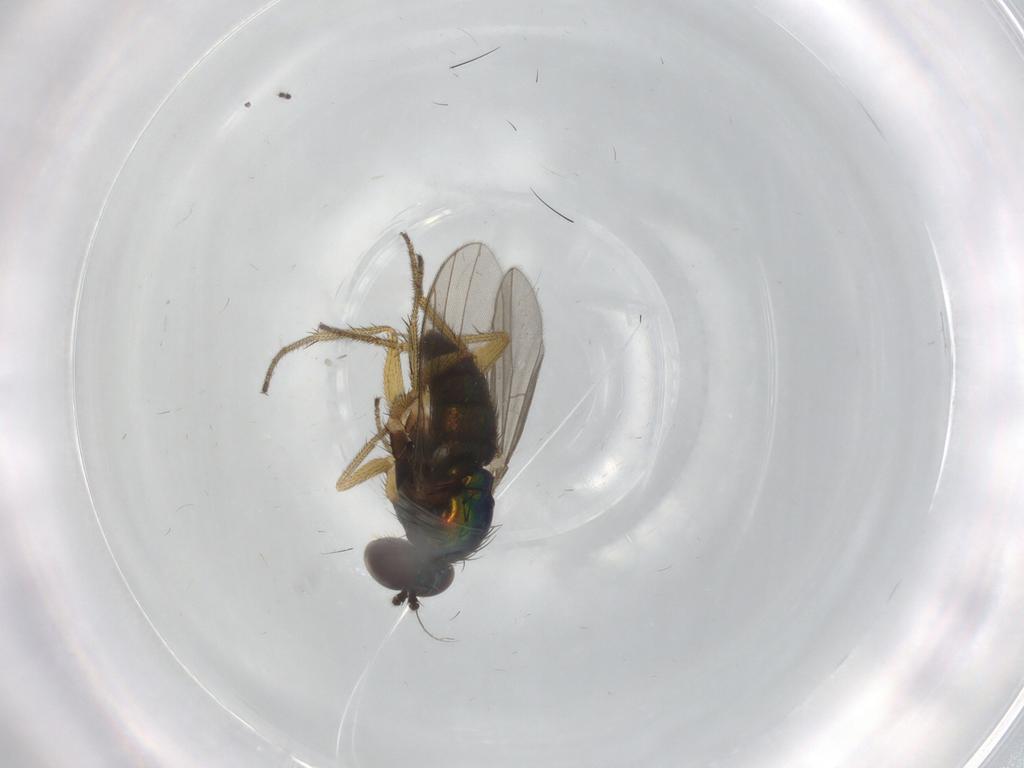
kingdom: Animalia
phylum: Arthropoda
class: Insecta
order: Diptera
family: Dolichopodidae
